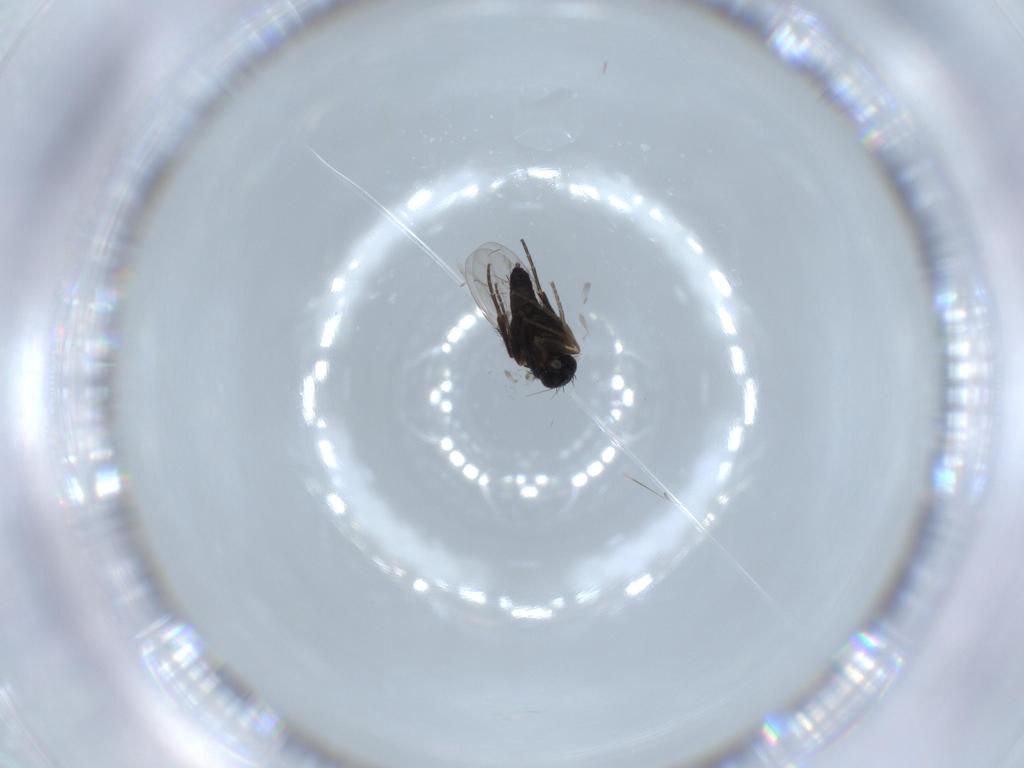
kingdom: Animalia
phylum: Arthropoda
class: Insecta
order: Diptera
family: Phoridae
